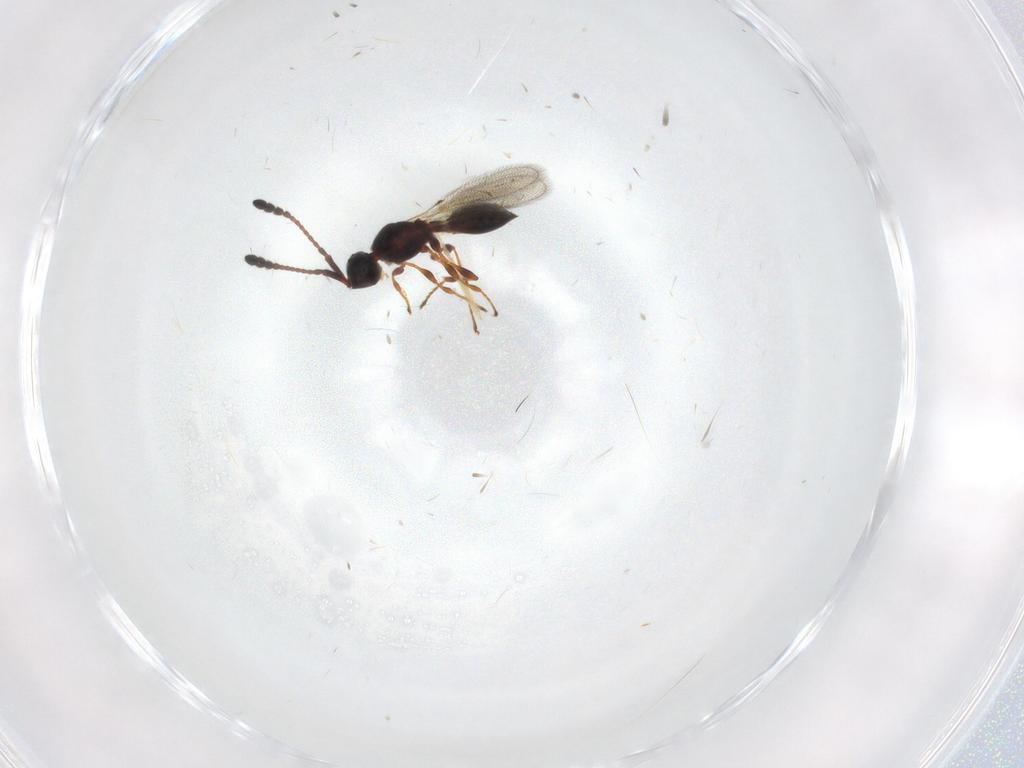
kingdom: Animalia
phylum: Arthropoda
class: Insecta
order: Hymenoptera
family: Diapriidae
